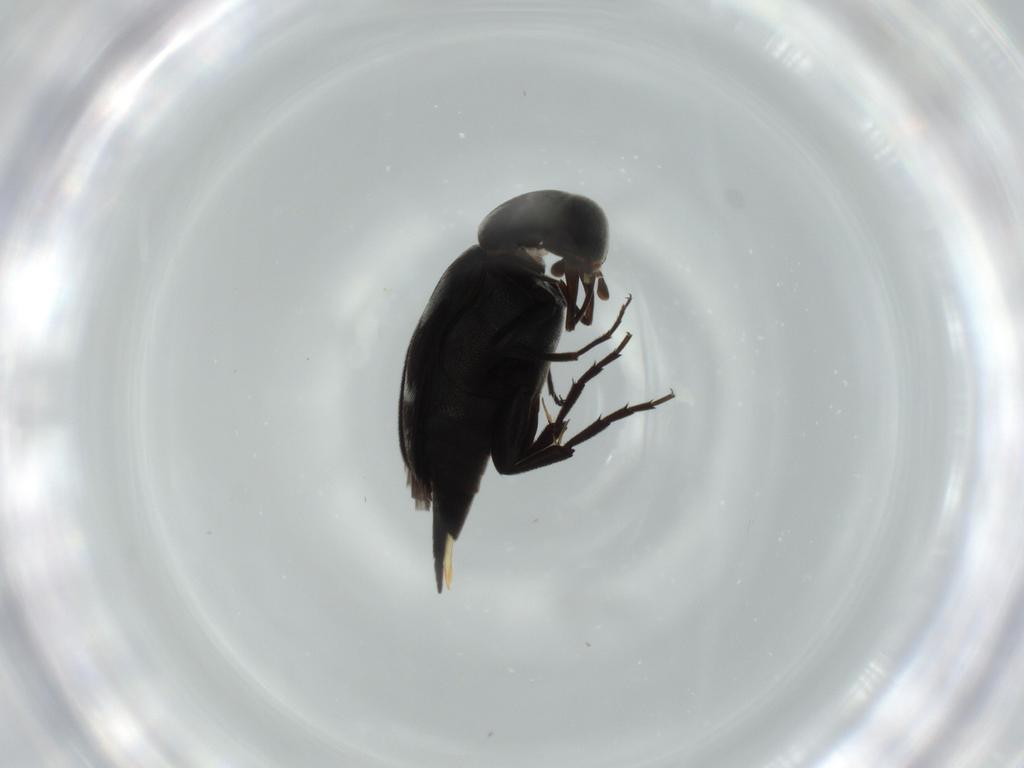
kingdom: Animalia
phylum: Arthropoda
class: Insecta
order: Coleoptera
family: Mordellidae
